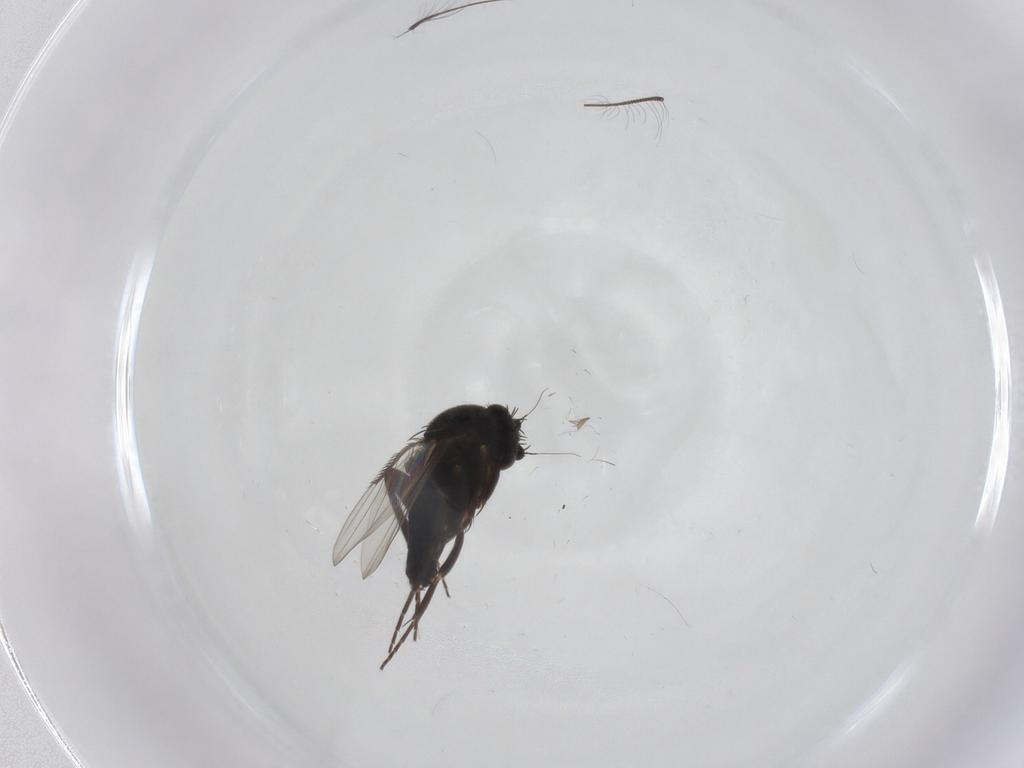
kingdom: Animalia
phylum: Arthropoda
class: Insecta
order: Diptera
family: Phoridae
